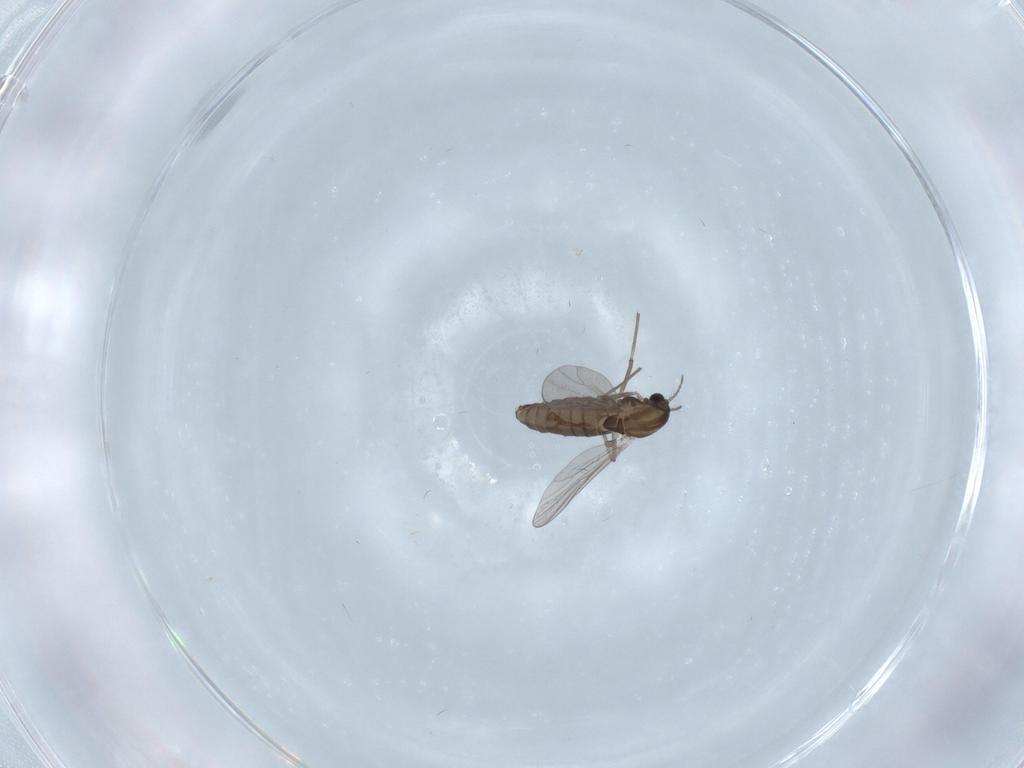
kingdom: Animalia
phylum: Arthropoda
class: Insecta
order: Diptera
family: Chironomidae
